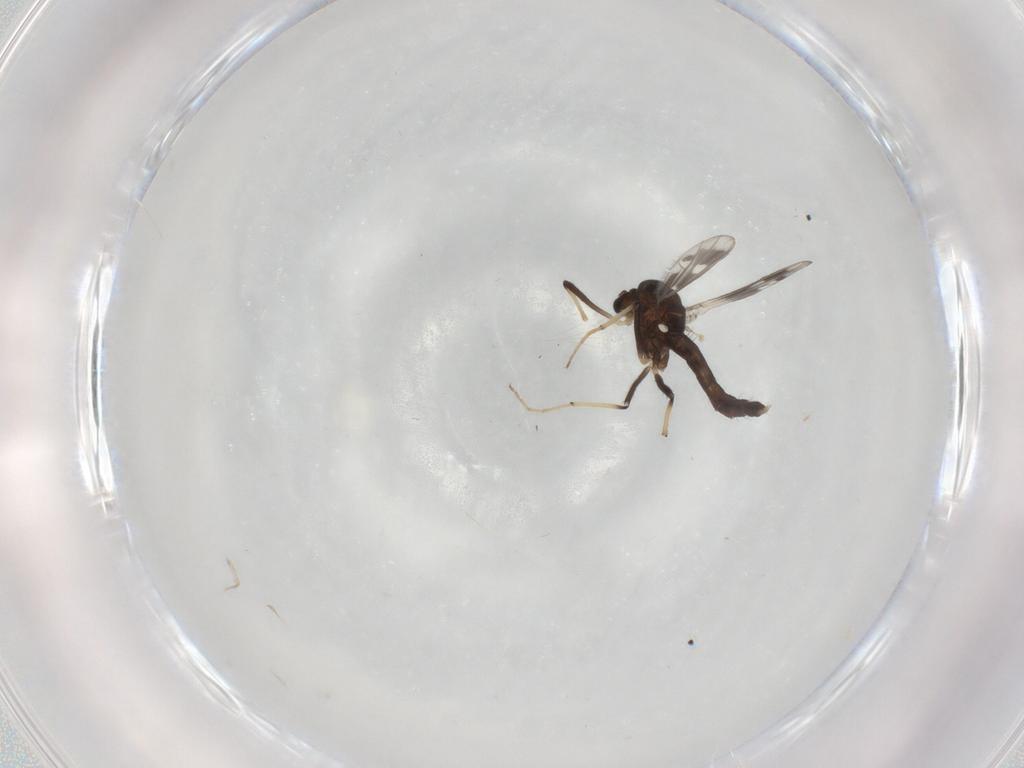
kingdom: Animalia
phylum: Arthropoda
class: Insecta
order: Diptera
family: Chironomidae
